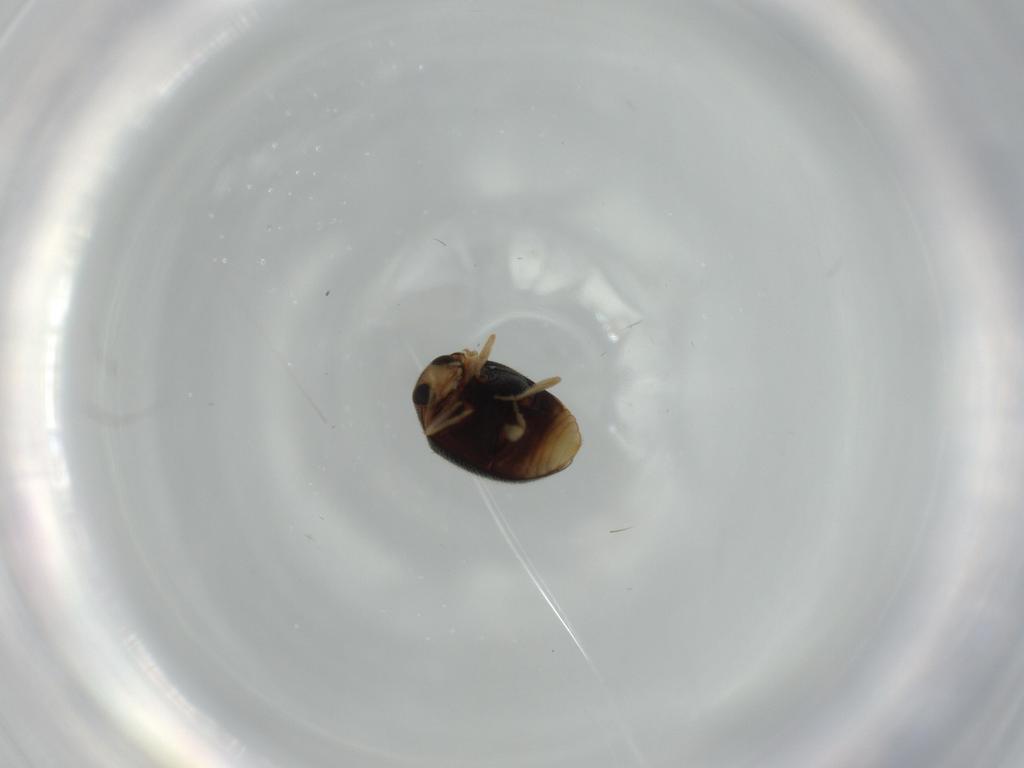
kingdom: Animalia
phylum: Arthropoda
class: Insecta
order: Coleoptera
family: Coccinellidae
